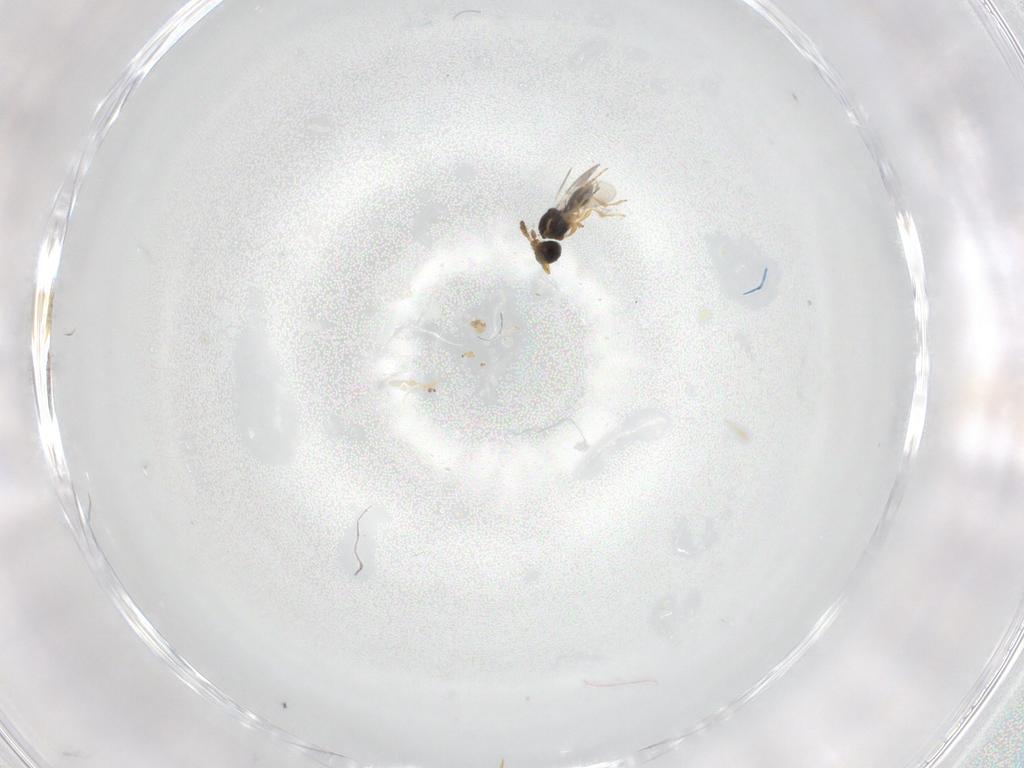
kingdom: Animalia
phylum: Arthropoda
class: Insecta
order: Hymenoptera
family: Platygastridae
